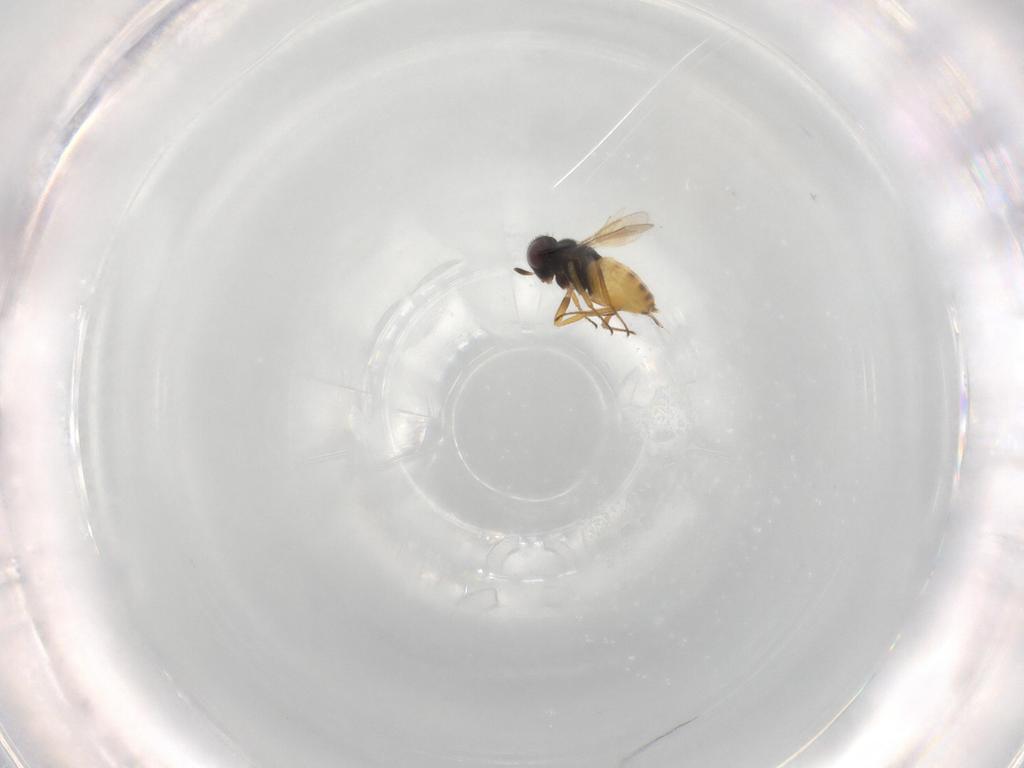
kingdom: Animalia
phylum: Arthropoda
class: Insecta
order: Hymenoptera
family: Aphelinidae
